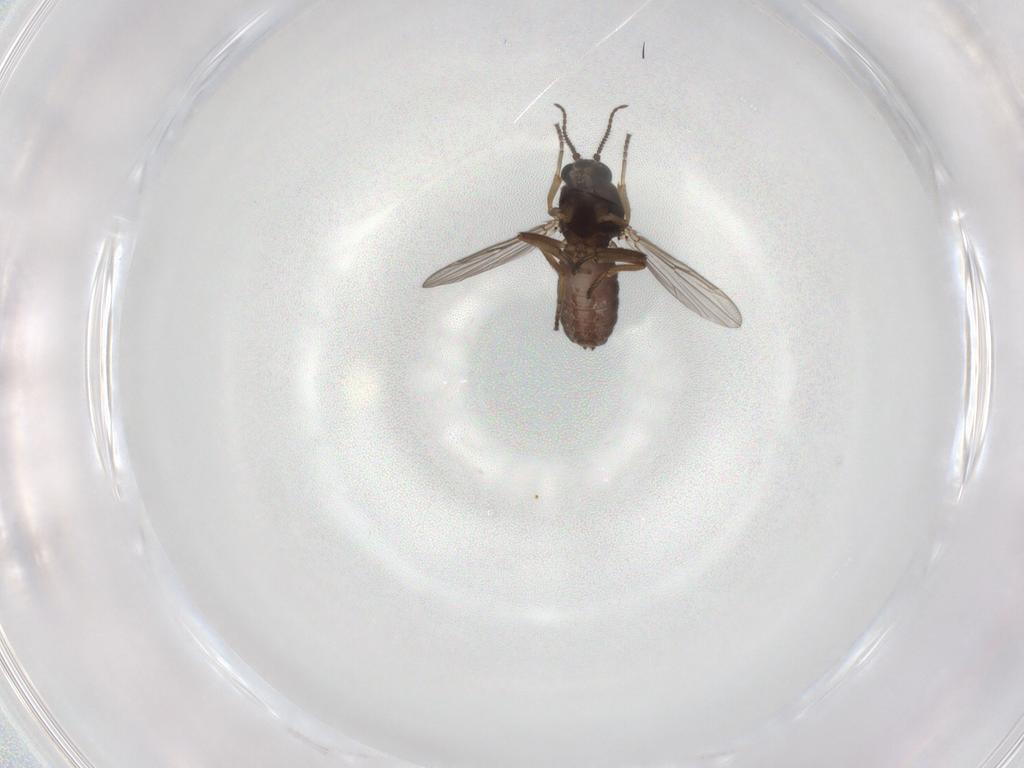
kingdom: Animalia
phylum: Arthropoda
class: Insecta
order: Diptera
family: Ceratopogonidae
